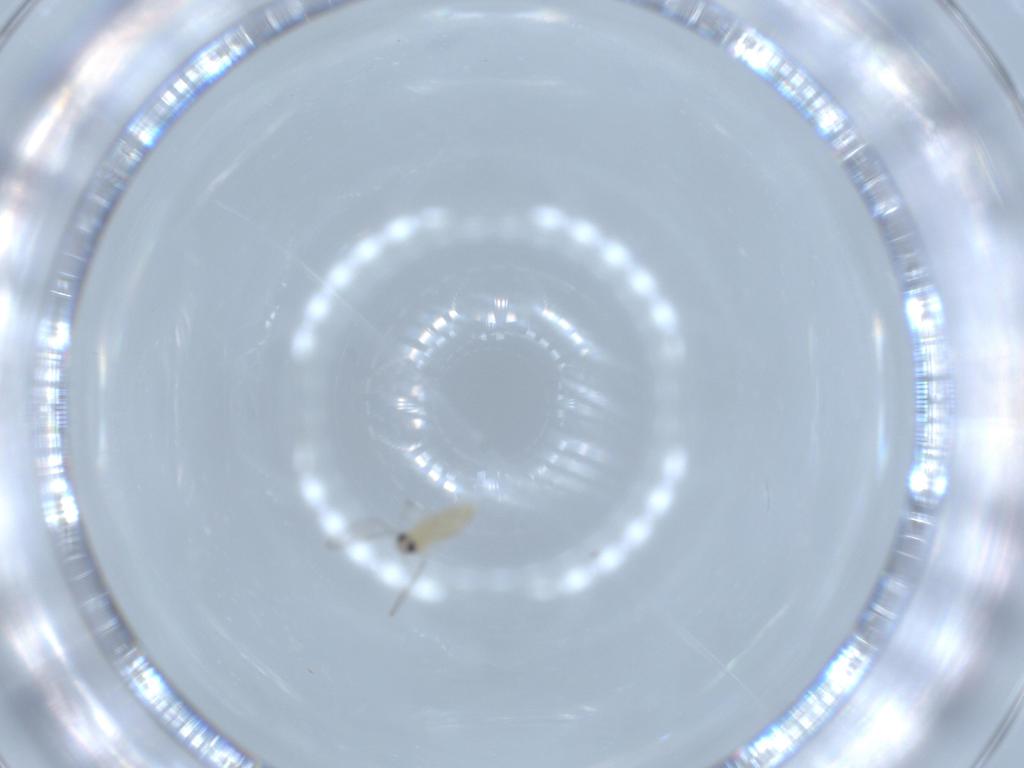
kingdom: Animalia
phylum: Arthropoda
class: Insecta
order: Diptera
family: Cecidomyiidae
